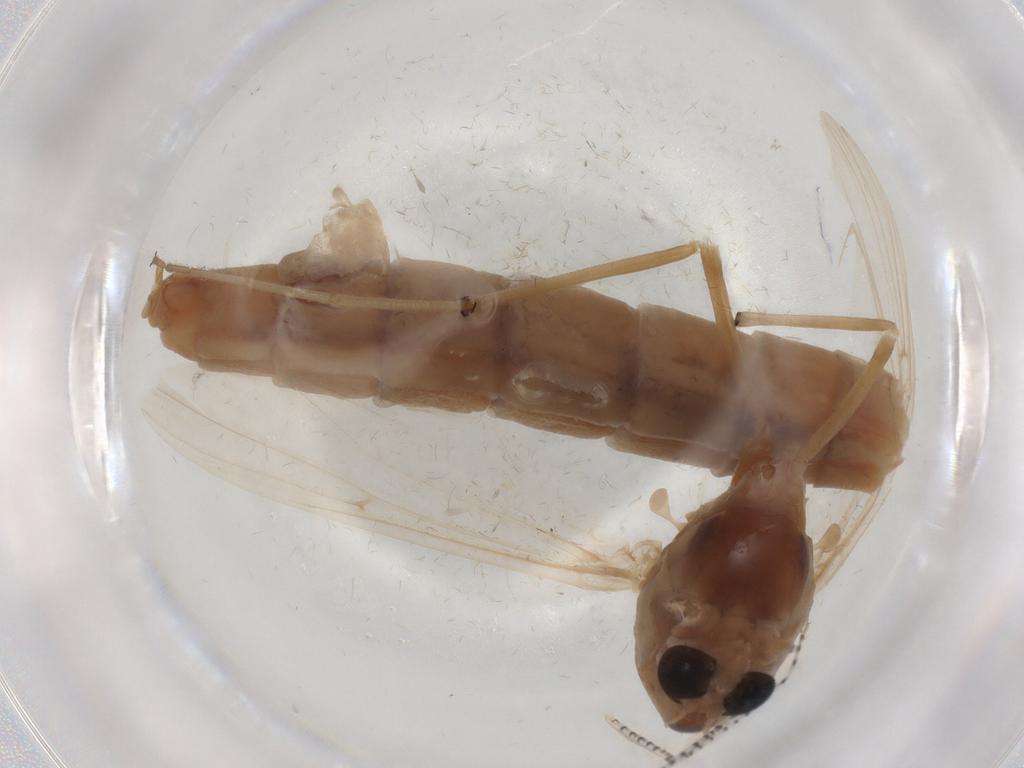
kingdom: Animalia
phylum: Arthropoda
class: Insecta
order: Diptera
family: Chironomidae
